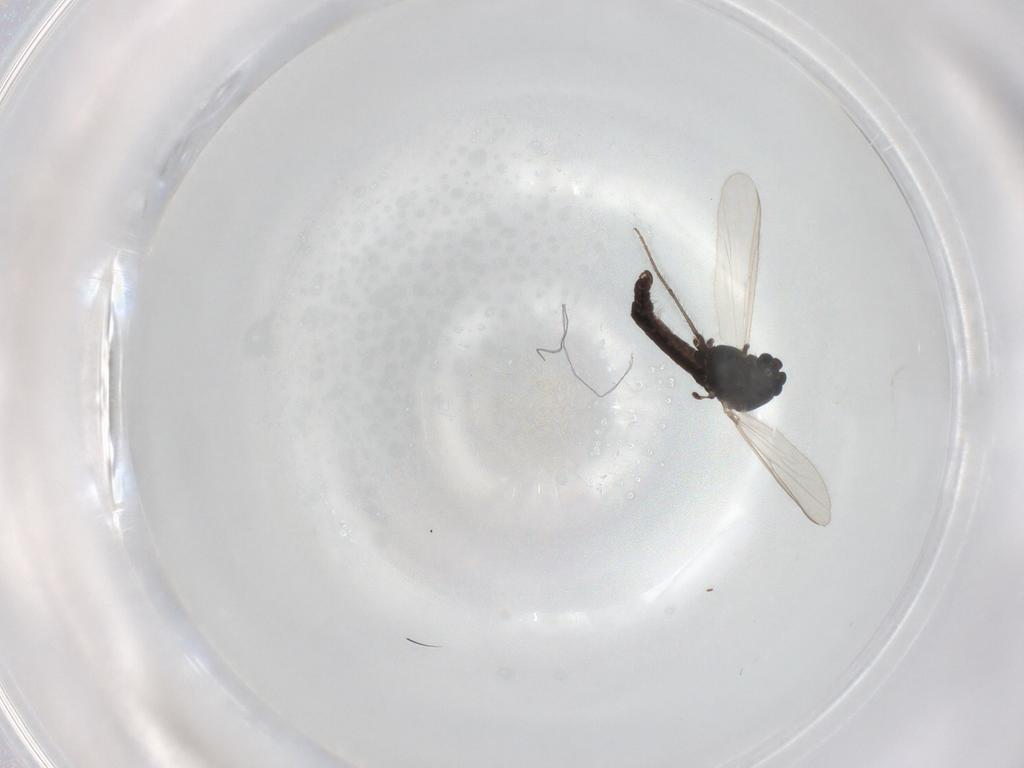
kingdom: Animalia
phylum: Arthropoda
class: Insecta
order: Diptera
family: Chironomidae
